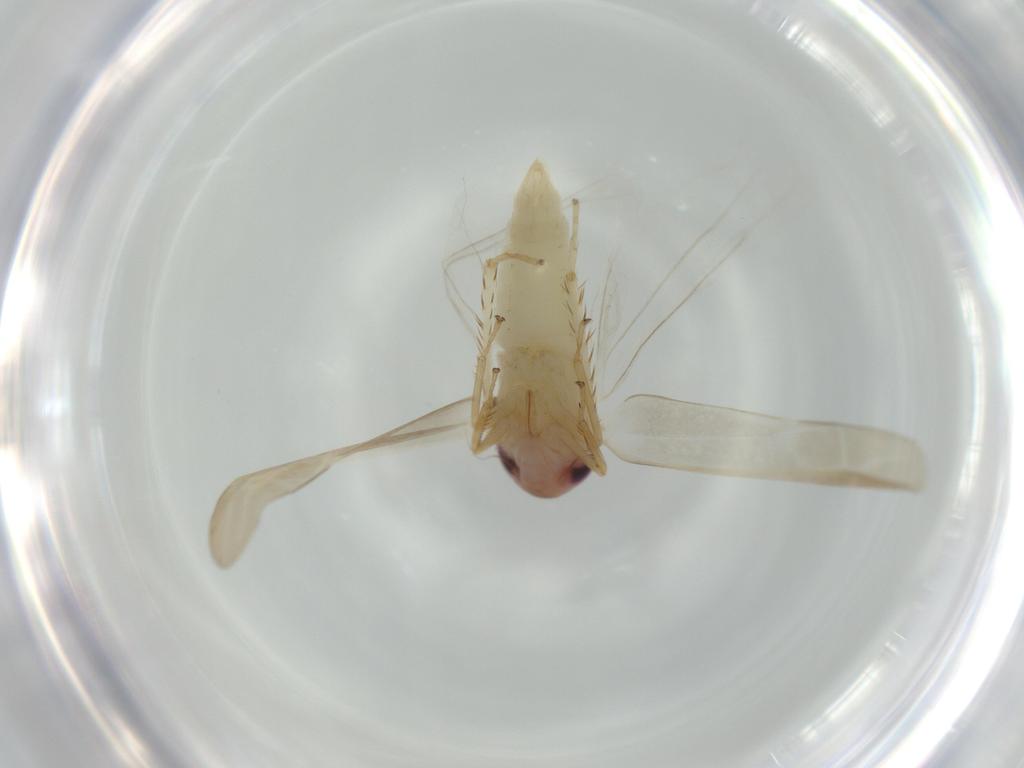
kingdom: Animalia
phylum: Arthropoda
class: Insecta
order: Hemiptera
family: Cicadellidae
